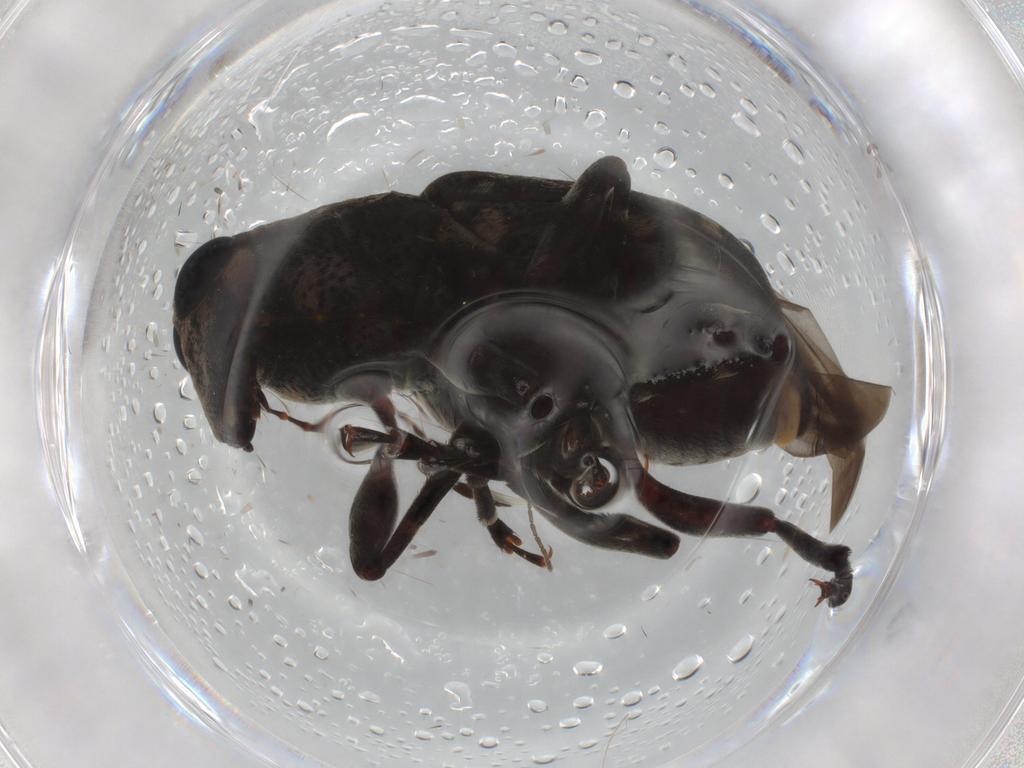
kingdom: Animalia
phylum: Arthropoda
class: Insecta
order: Coleoptera
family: Anthribidae
